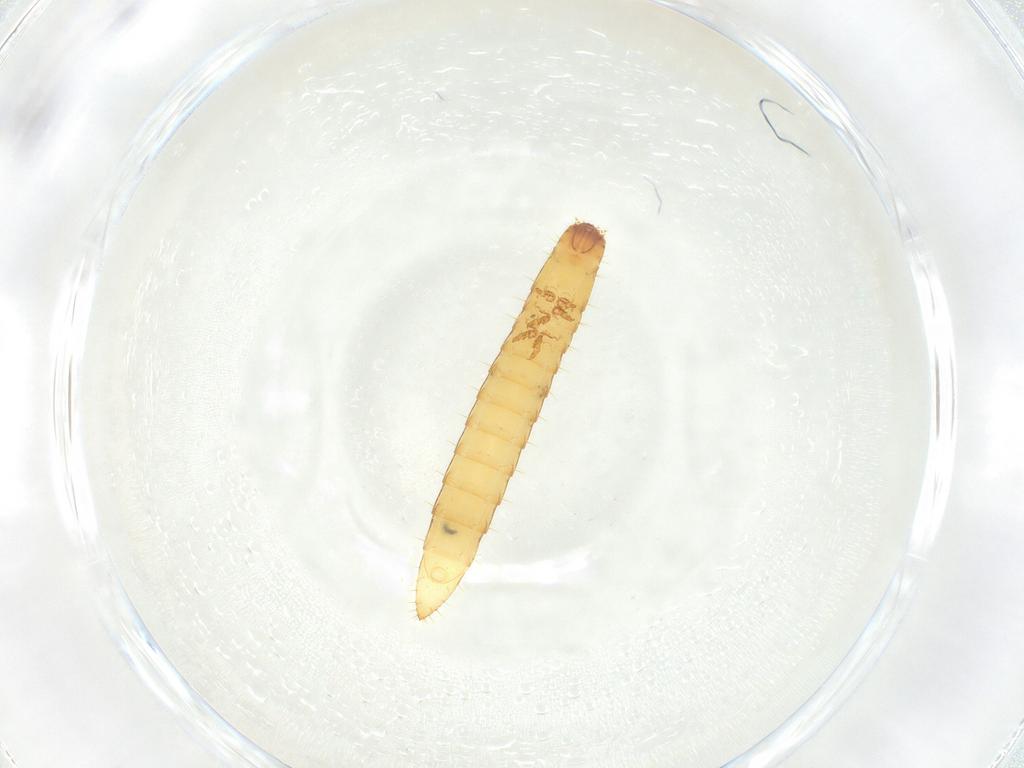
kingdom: Animalia
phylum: Arthropoda
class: Insecta
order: Coleoptera
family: Elateridae
